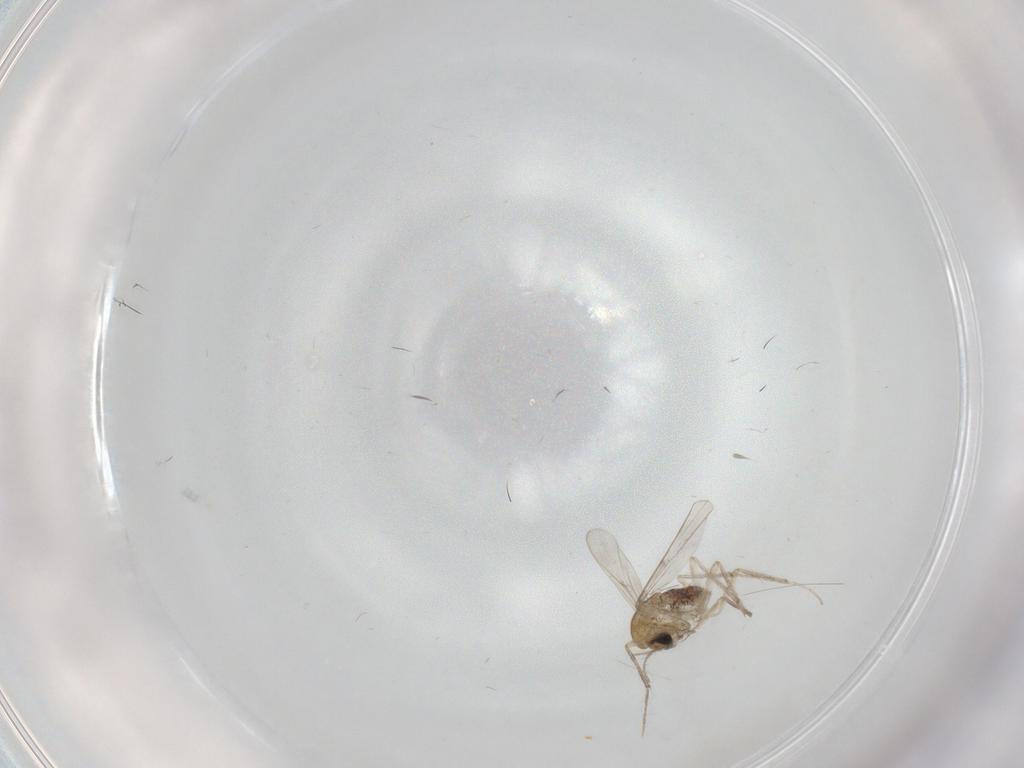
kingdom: Animalia
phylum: Arthropoda
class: Insecta
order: Diptera
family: Chironomidae
